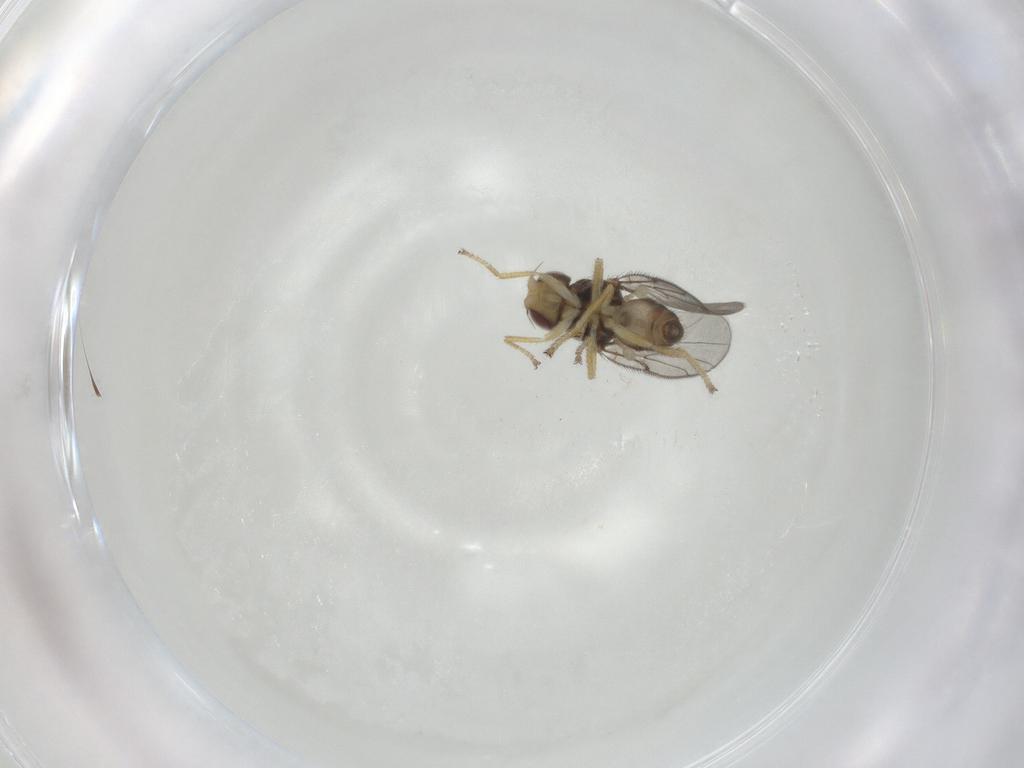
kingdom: Animalia
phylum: Arthropoda
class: Insecta
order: Diptera
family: Chloropidae
